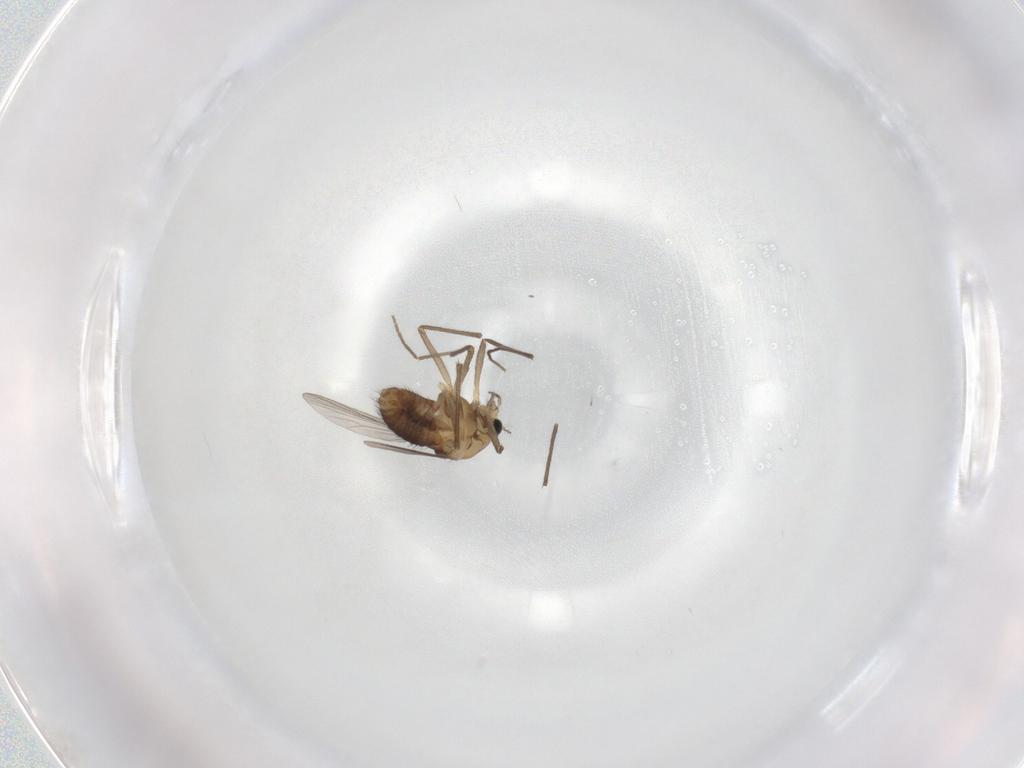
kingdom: Animalia
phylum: Arthropoda
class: Insecta
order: Diptera
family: Chironomidae
